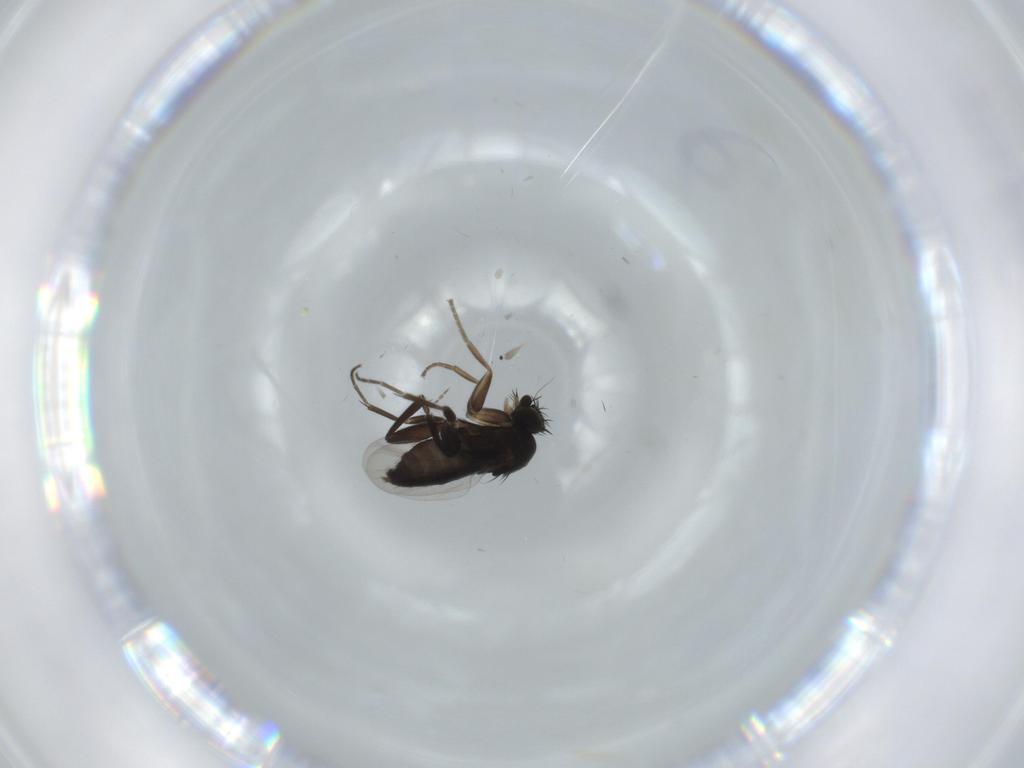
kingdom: Animalia
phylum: Arthropoda
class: Insecta
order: Diptera
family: Phoridae
